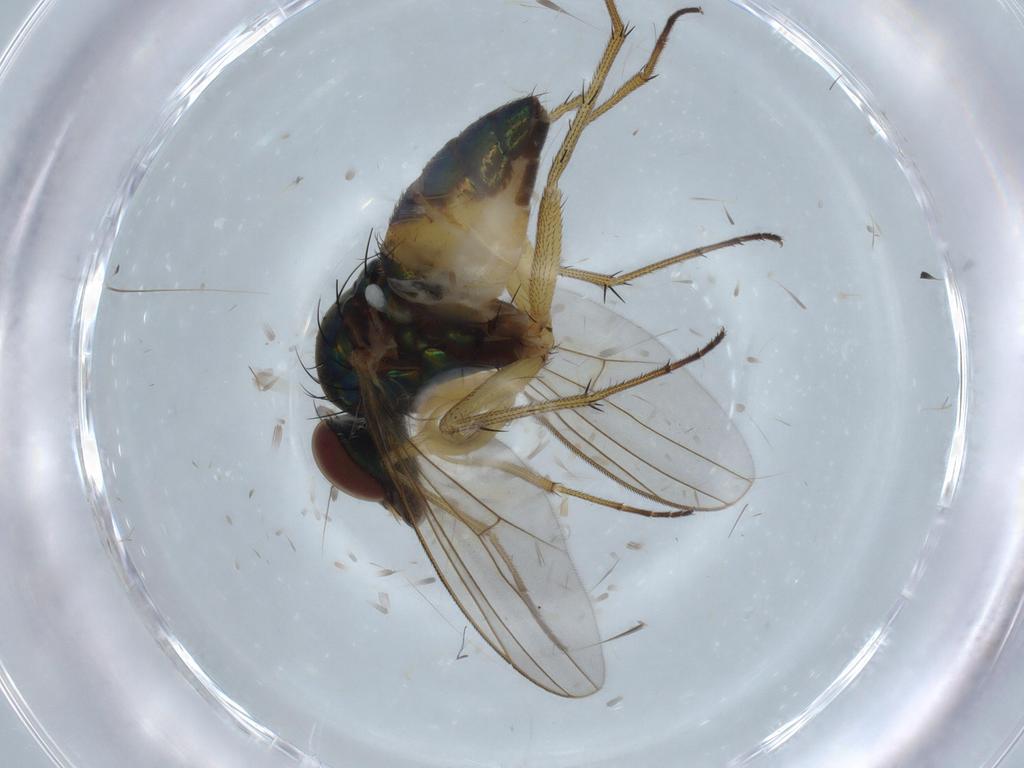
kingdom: Animalia
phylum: Arthropoda
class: Insecta
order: Diptera
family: Dolichopodidae
